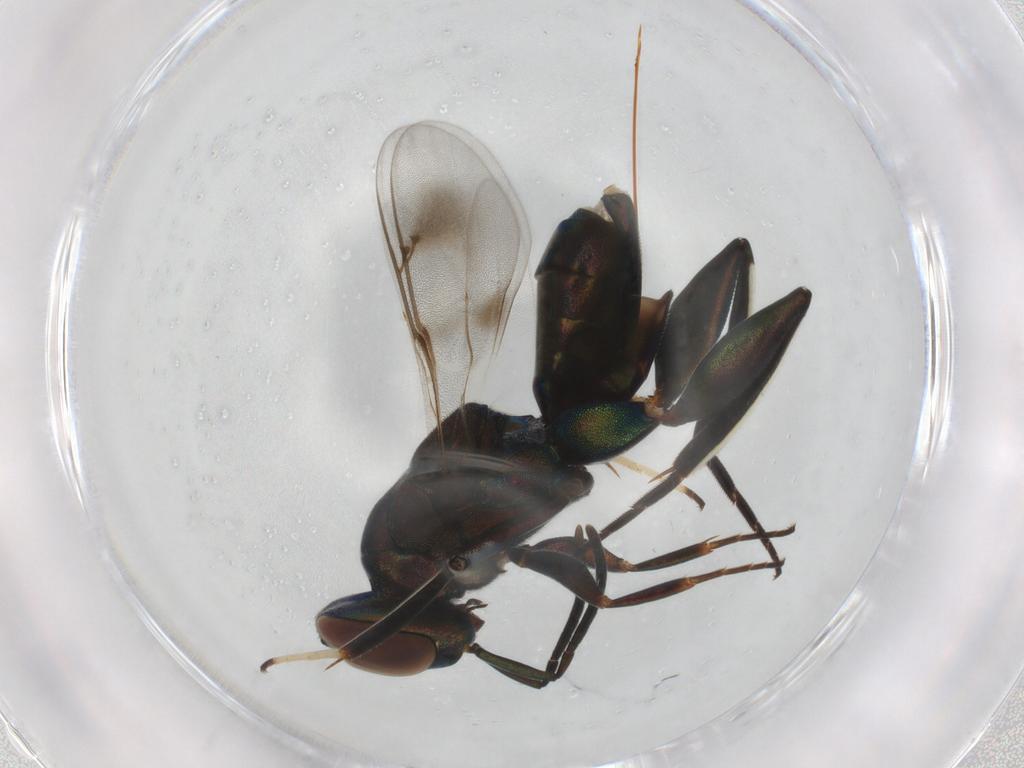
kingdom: Animalia
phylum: Arthropoda
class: Insecta
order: Hymenoptera
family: Eupelmidae
